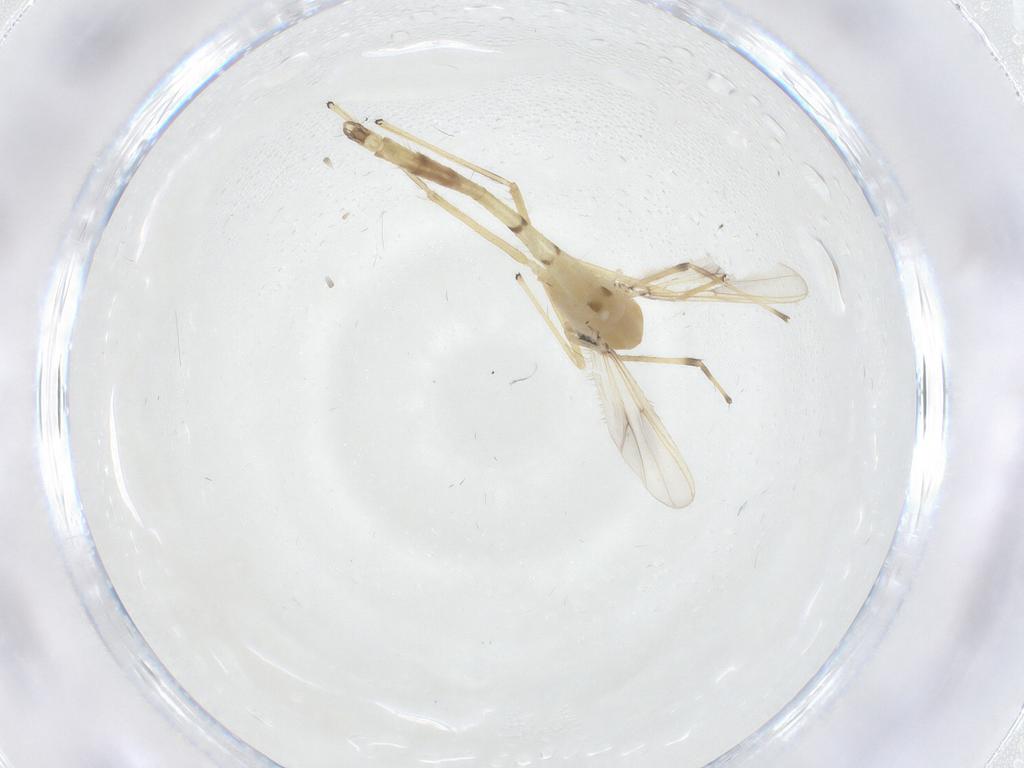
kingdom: Animalia
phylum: Arthropoda
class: Insecta
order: Diptera
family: Chironomidae
